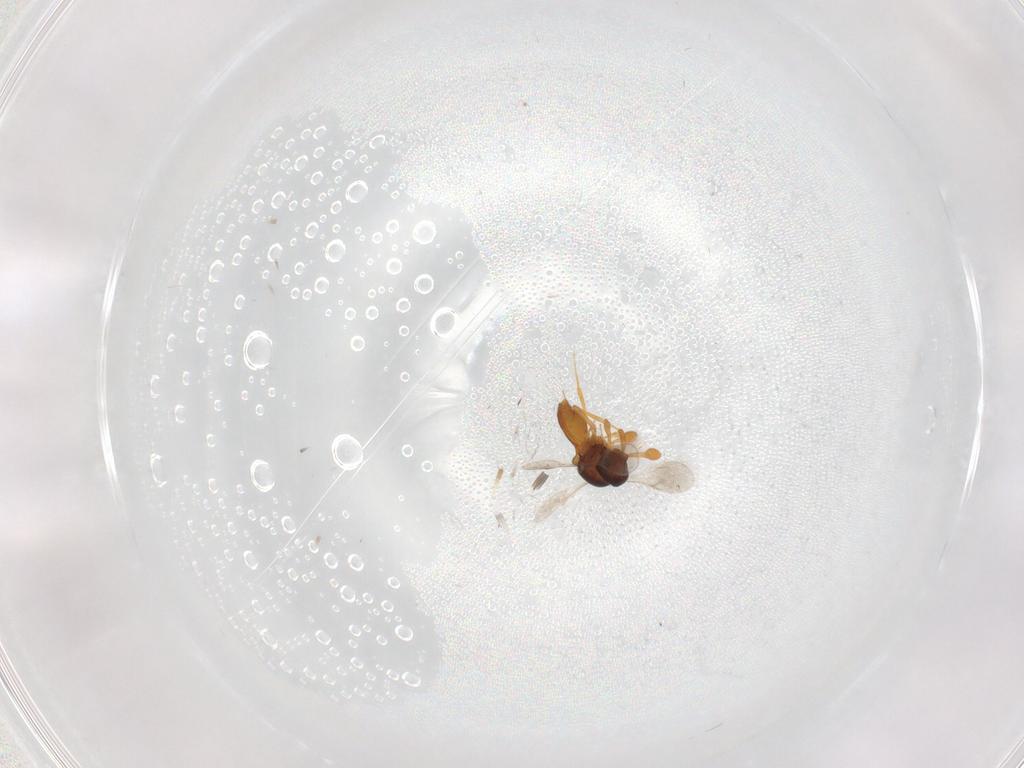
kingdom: Animalia
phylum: Arthropoda
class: Insecta
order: Hymenoptera
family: Scelionidae
